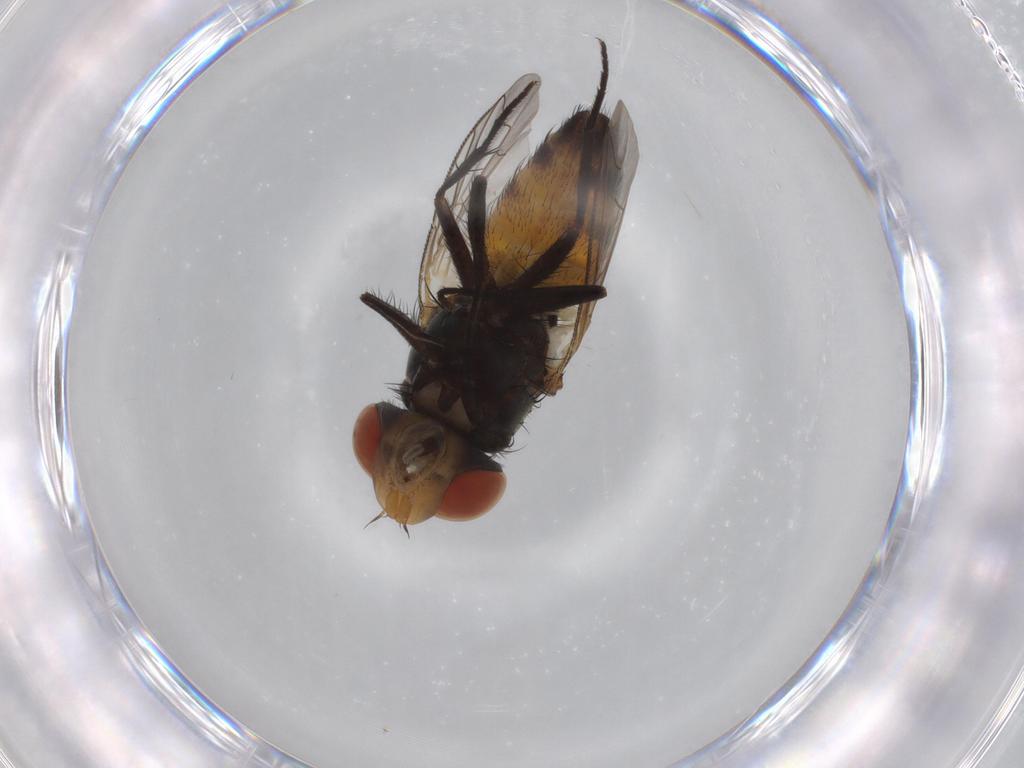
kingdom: Animalia
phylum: Arthropoda
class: Insecta
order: Diptera
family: Sarcophagidae
